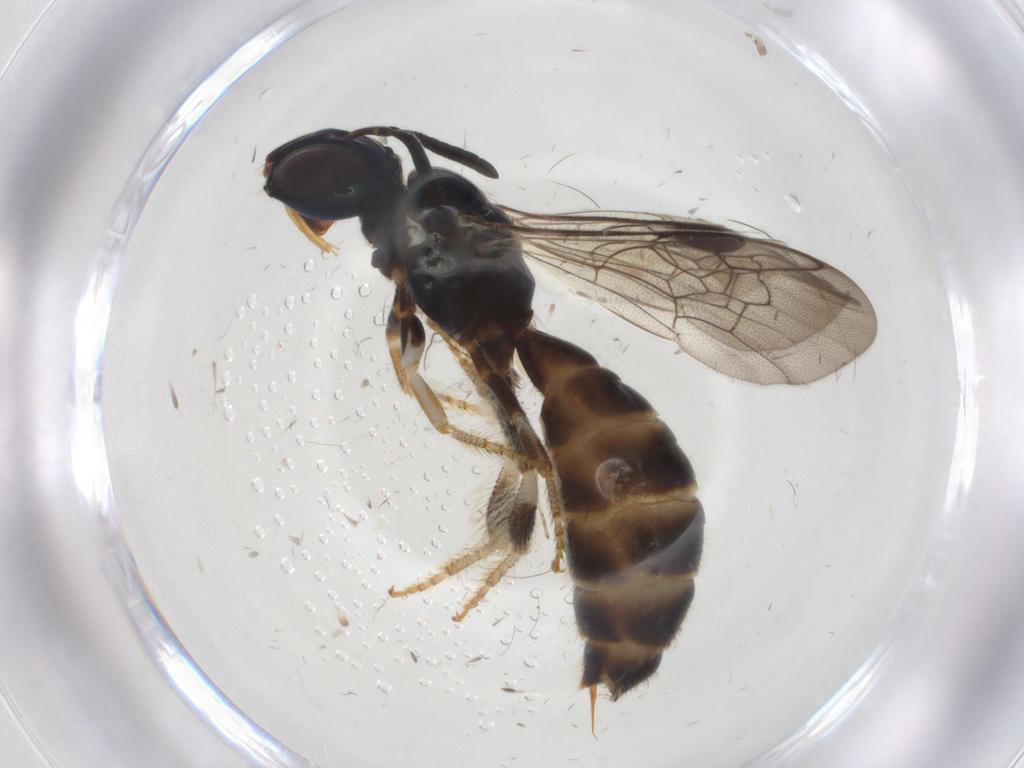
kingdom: Animalia
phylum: Arthropoda
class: Insecta
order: Hymenoptera
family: Platygastridae
